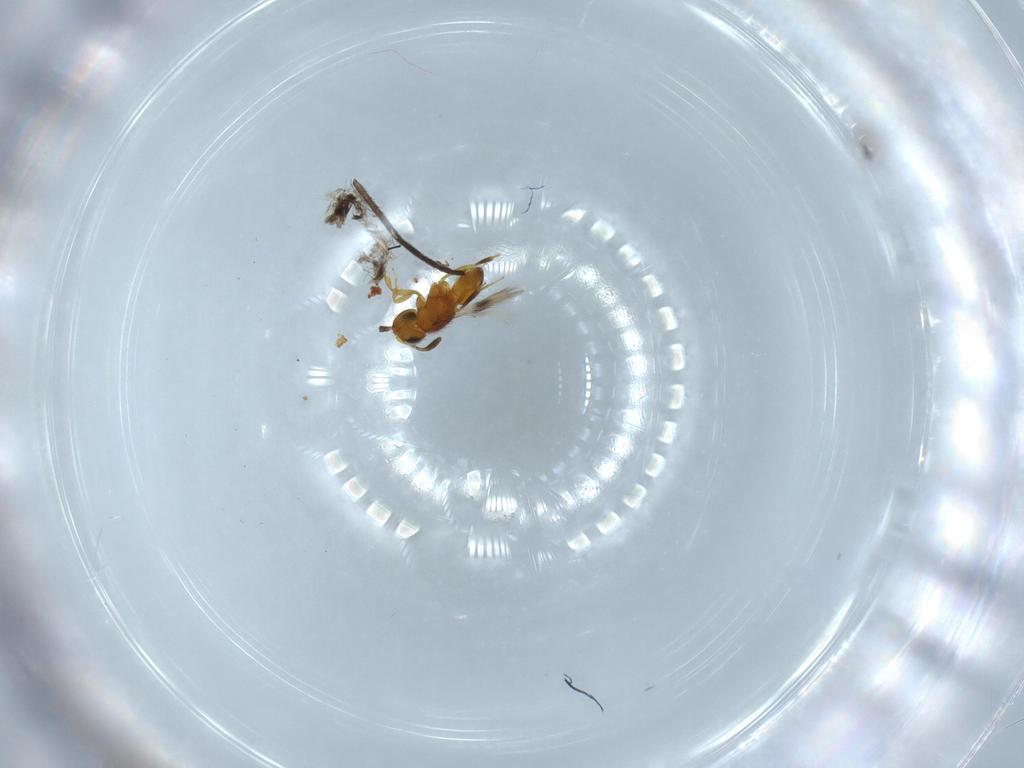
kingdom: Animalia
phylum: Arthropoda
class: Insecta
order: Hymenoptera
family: Scelionidae
